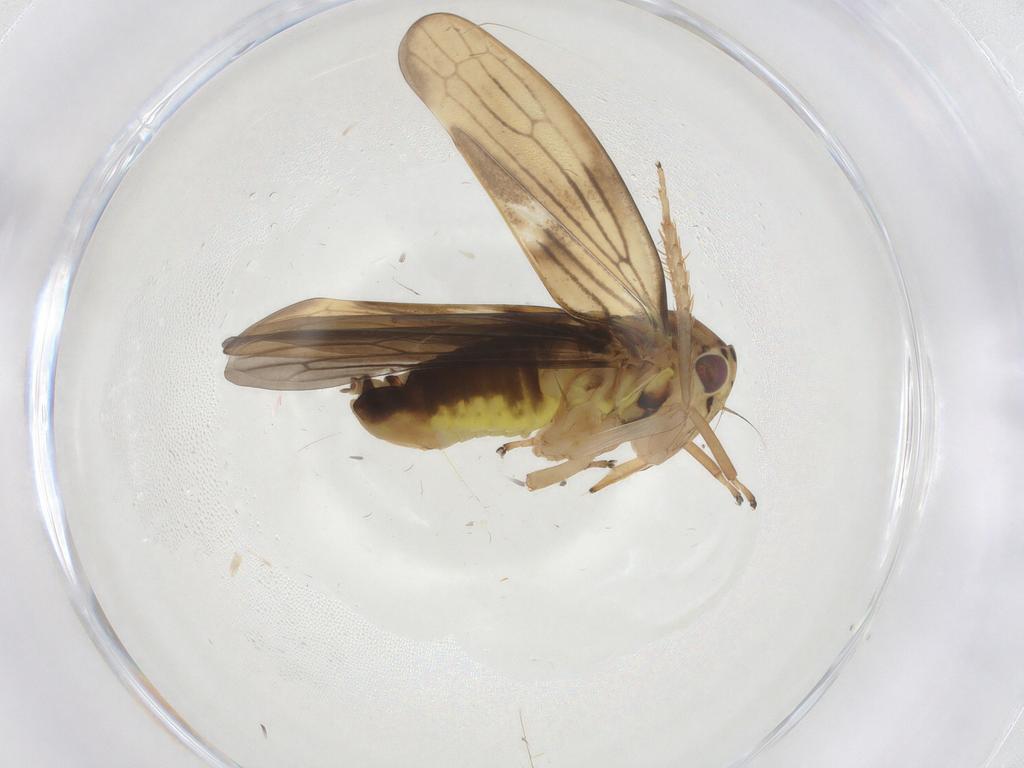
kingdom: Animalia
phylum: Arthropoda
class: Insecta
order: Hemiptera
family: Cicadellidae
